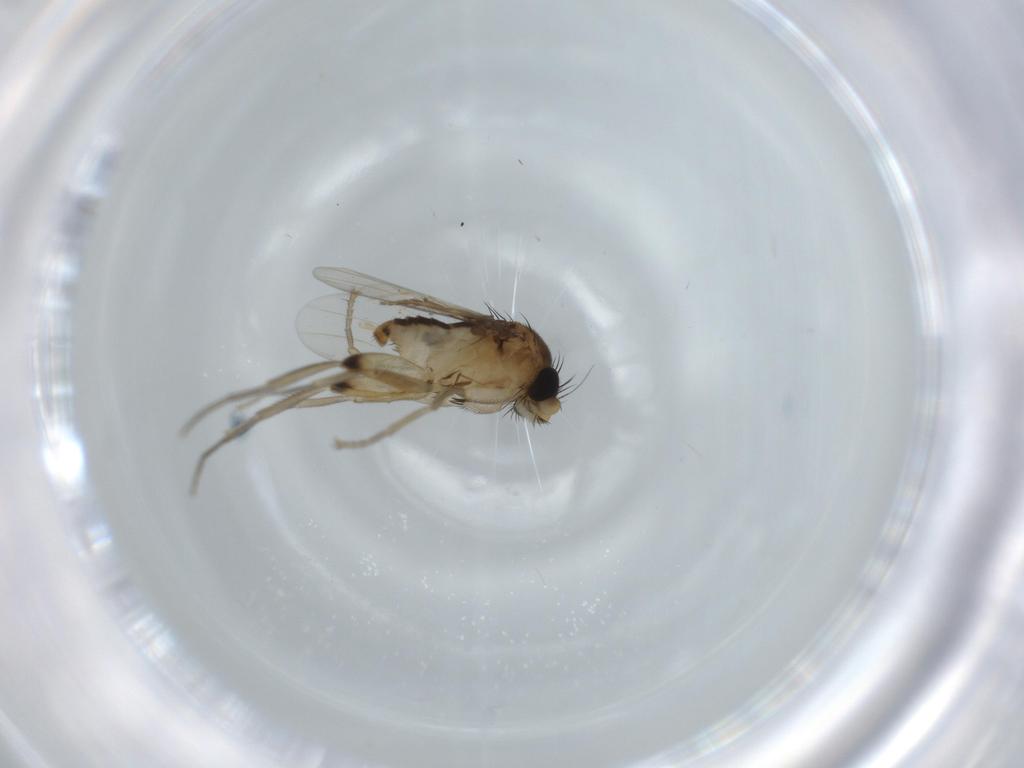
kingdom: Animalia
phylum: Arthropoda
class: Insecta
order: Diptera
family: Phoridae
